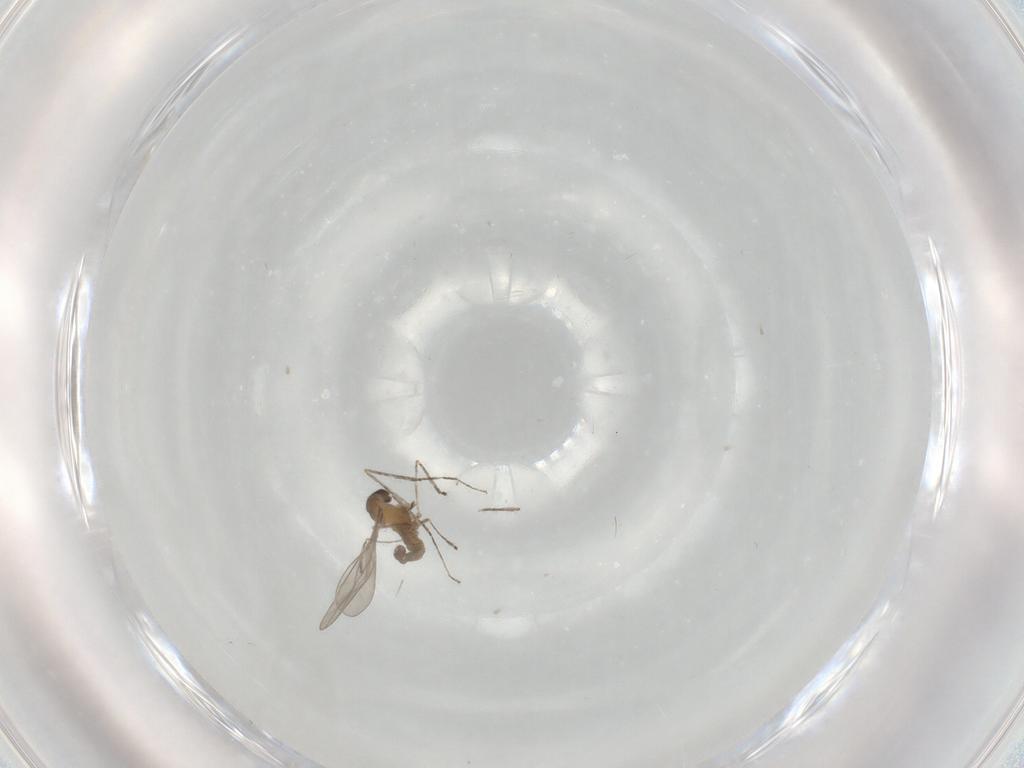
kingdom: Animalia
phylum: Arthropoda
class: Insecta
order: Diptera
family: Cecidomyiidae
